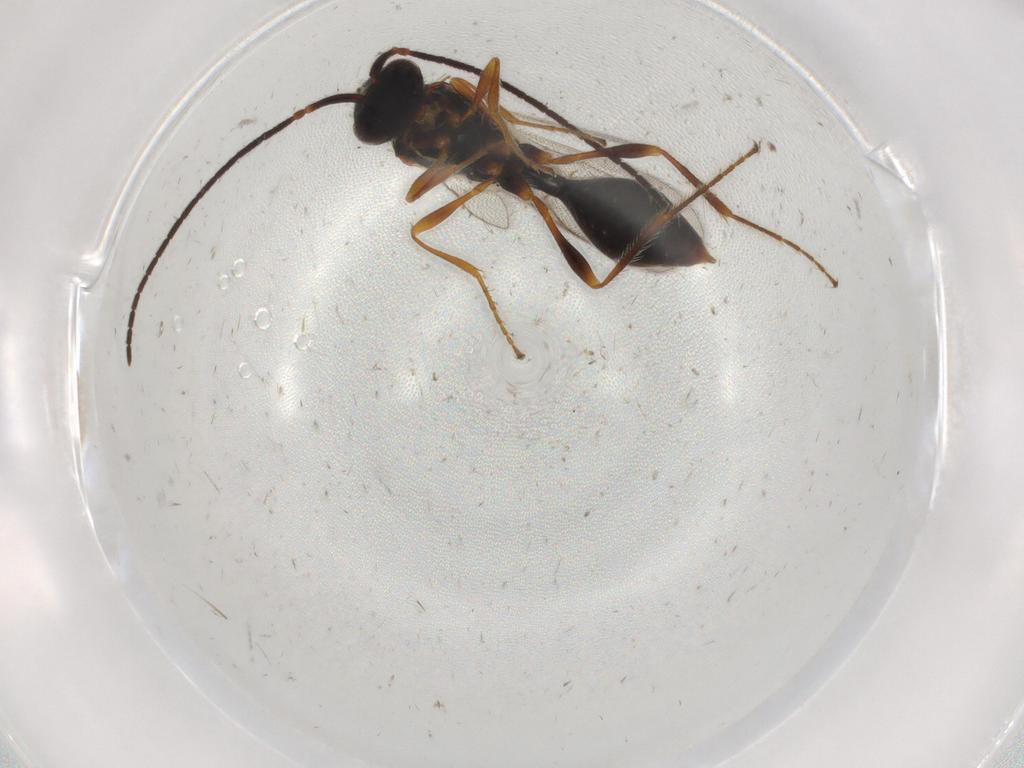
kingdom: Animalia
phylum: Arthropoda
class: Insecta
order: Hymenoptera
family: Diapriidae
